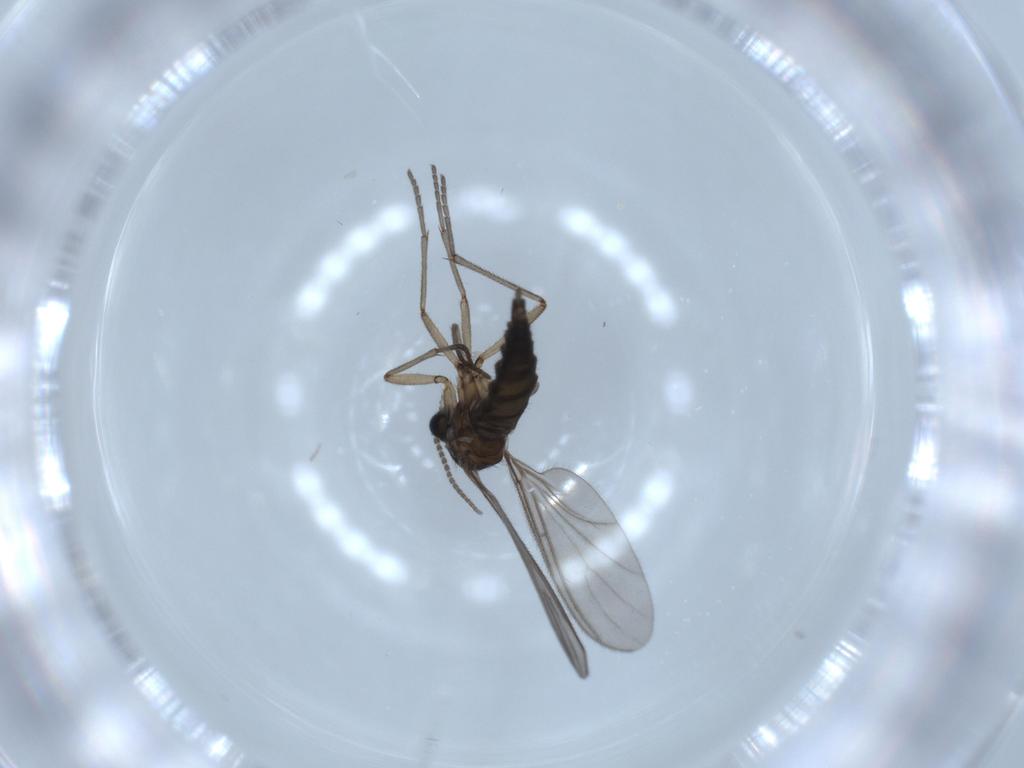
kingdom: Animalia
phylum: Arthropoda
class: Insecta
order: Diptera
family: Sciaridae
